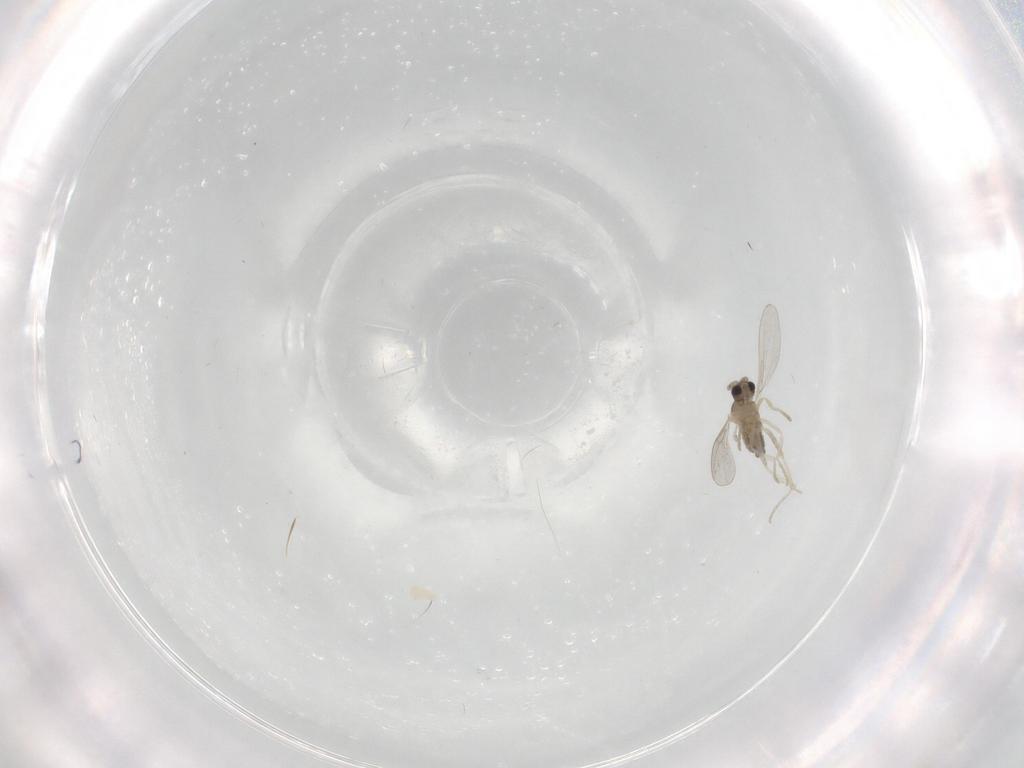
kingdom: Animalia
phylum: Arthropoda
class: Insecta
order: Diptera
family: Cecidomyiidae
